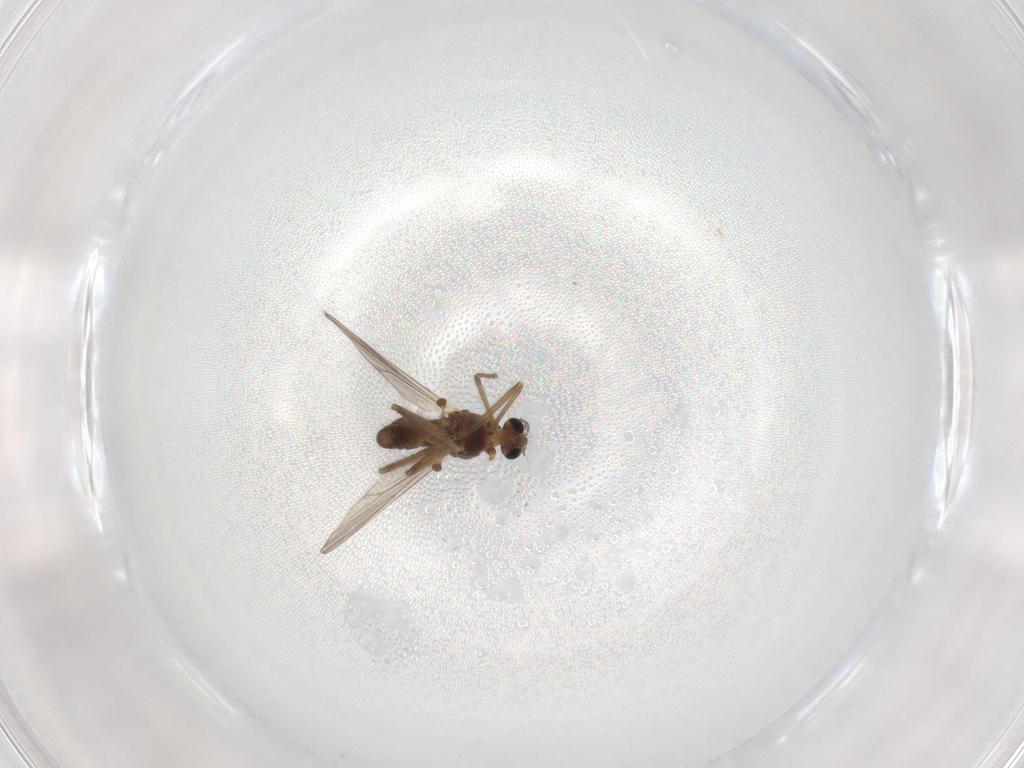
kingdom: Animalia
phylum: Arthropoda
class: Insecta
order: Diptera
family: Chironomidae
